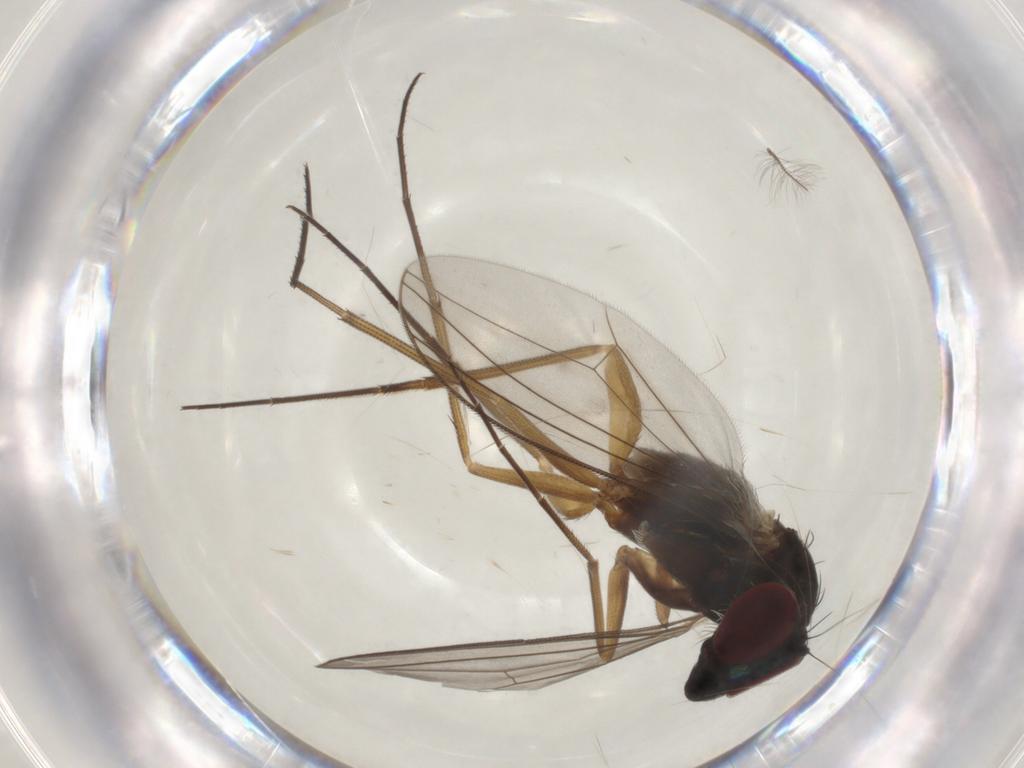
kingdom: Animalia
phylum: Arthropoda
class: Insecta
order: Diptera
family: Dolichopodidae
